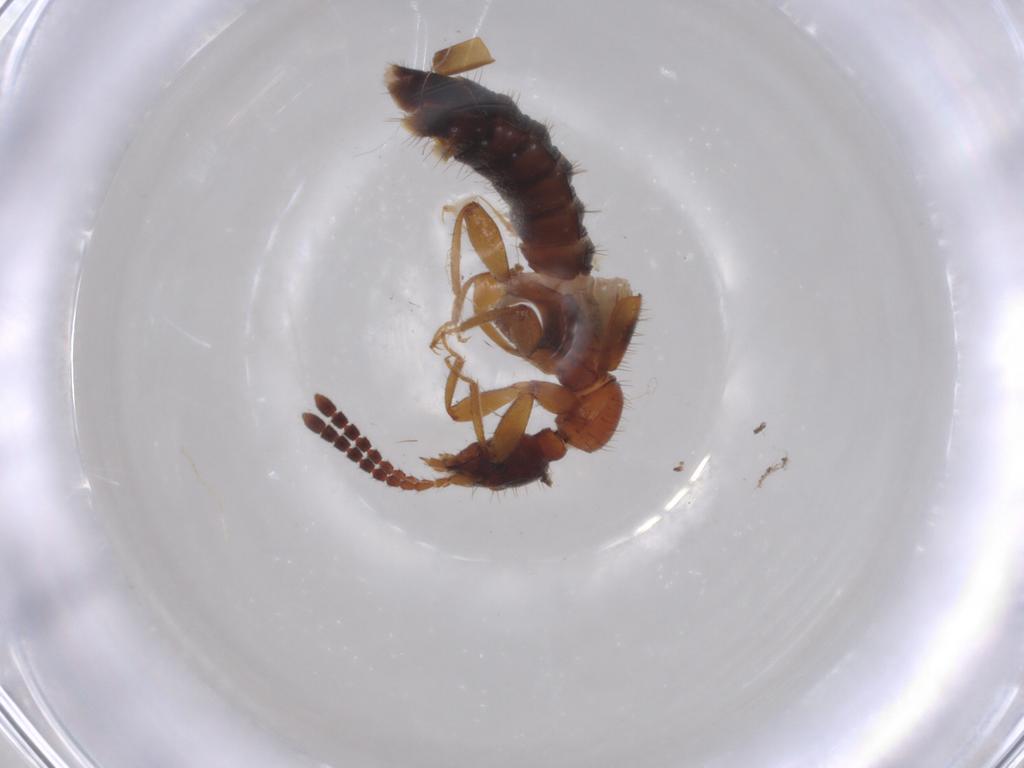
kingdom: Animalia
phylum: Arthropoda
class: Insecta
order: Coleoptera
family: Staphylinidae
